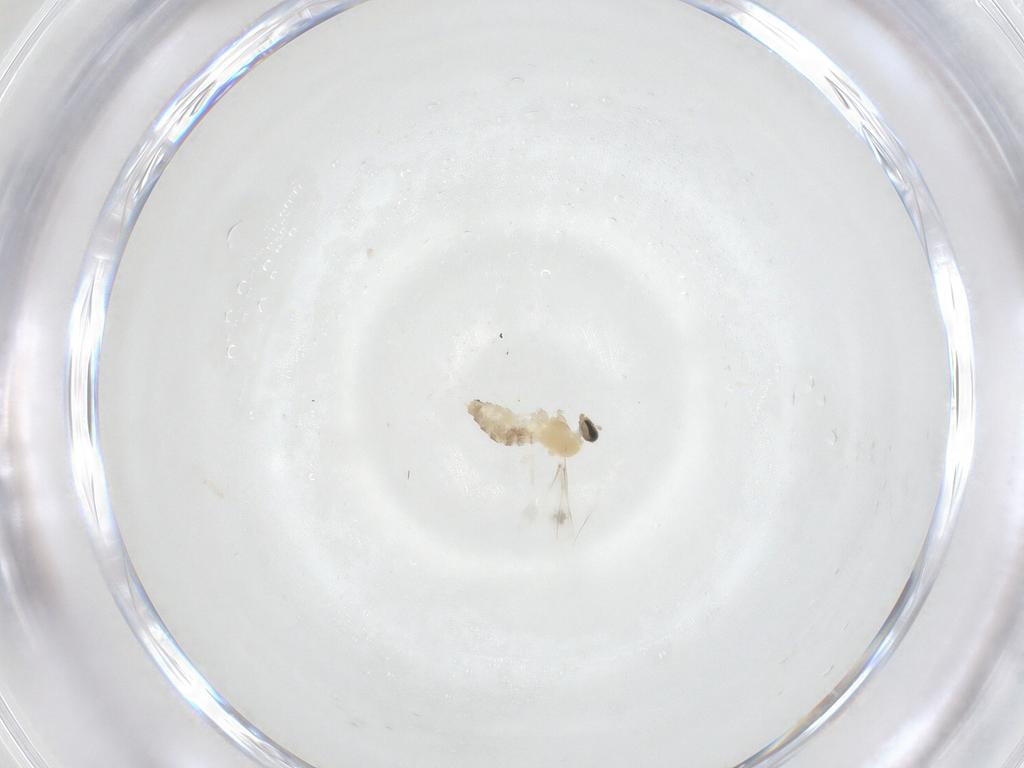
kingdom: Animalia
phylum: Arthropoda
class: Insecta
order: Diptera
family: Cecidomyiidae
